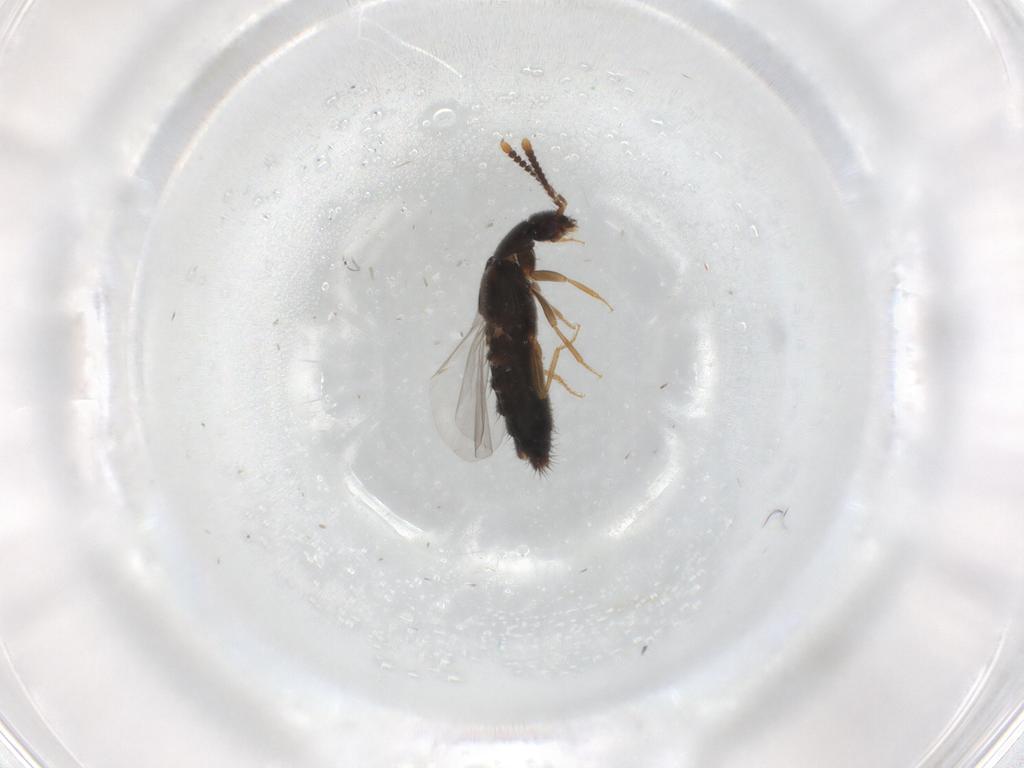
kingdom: Animalia
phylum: Arthropoda
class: Insecta
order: Coleoptera
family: Staphylinidae
